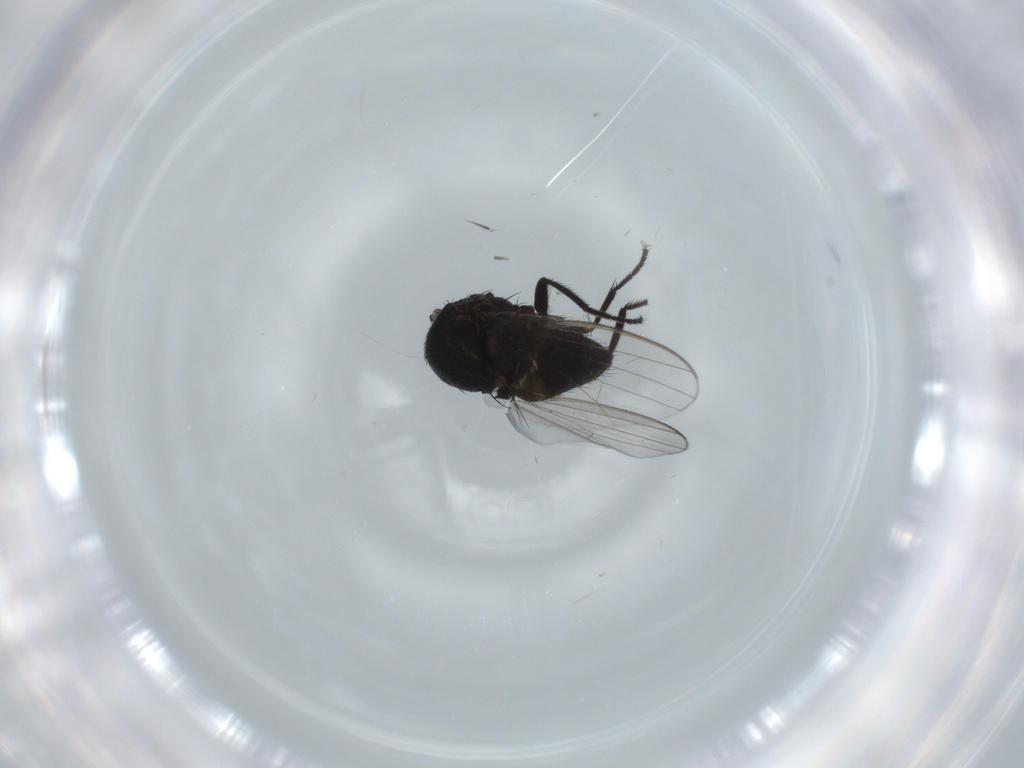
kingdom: Animalia
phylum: Arthropoda
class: Insecta
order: Diptera
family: Milichiidae
